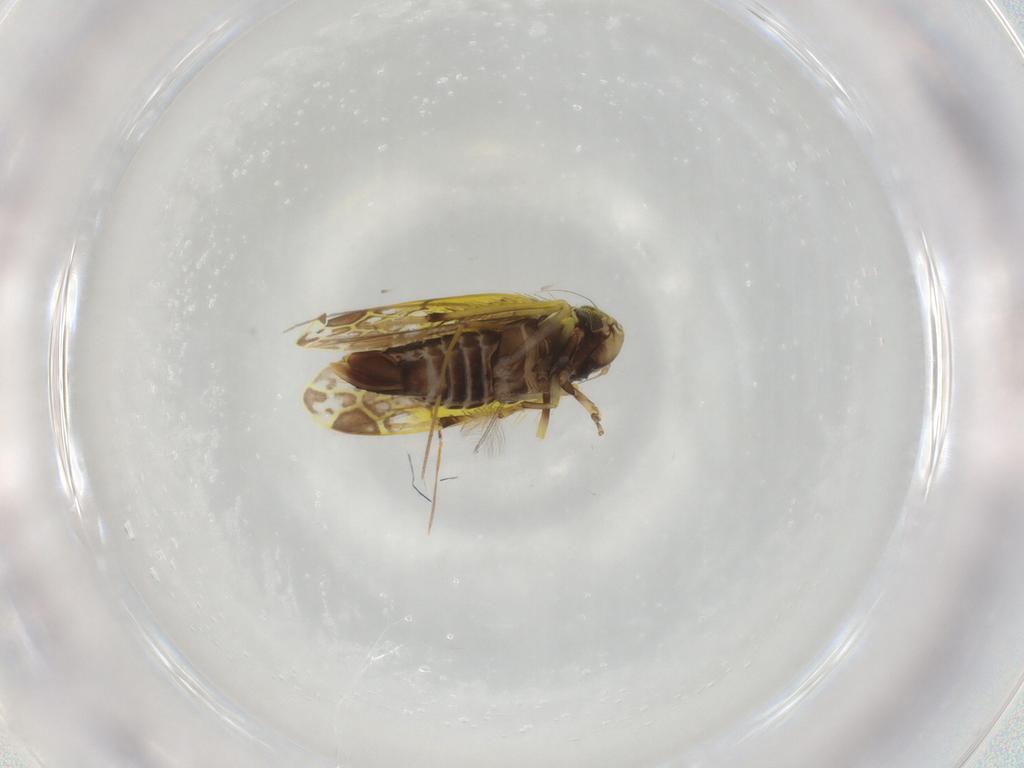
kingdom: Animalia
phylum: Arthropoda
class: Insecta
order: Hemiptera
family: Cicadellidae
